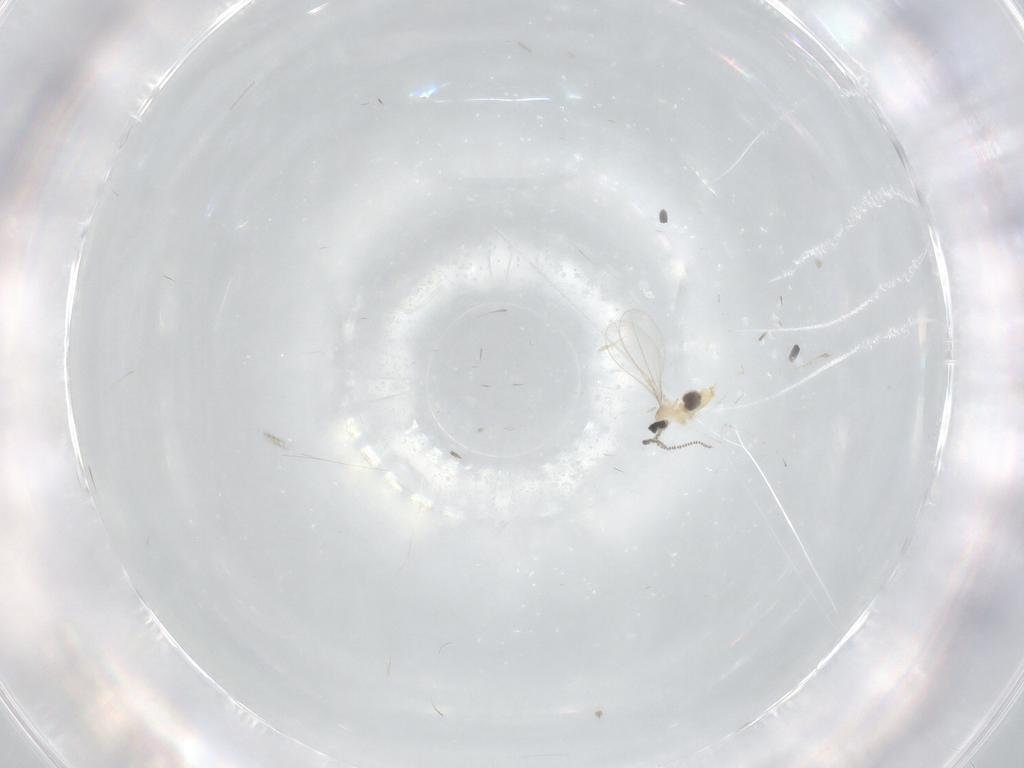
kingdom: Animalia
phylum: Arthropoda
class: Insecta
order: Diptera
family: Cecidomyiidae
